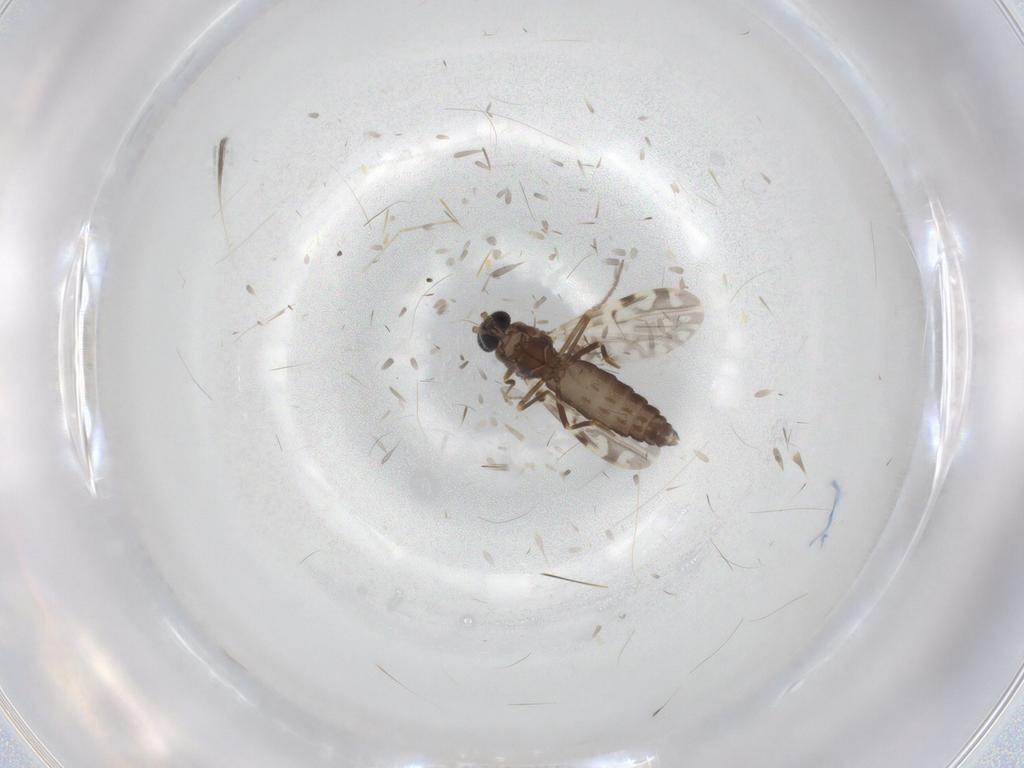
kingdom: Animalia
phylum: Arthropoda
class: Insecta
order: Diptera
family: Ceratopogonidae
